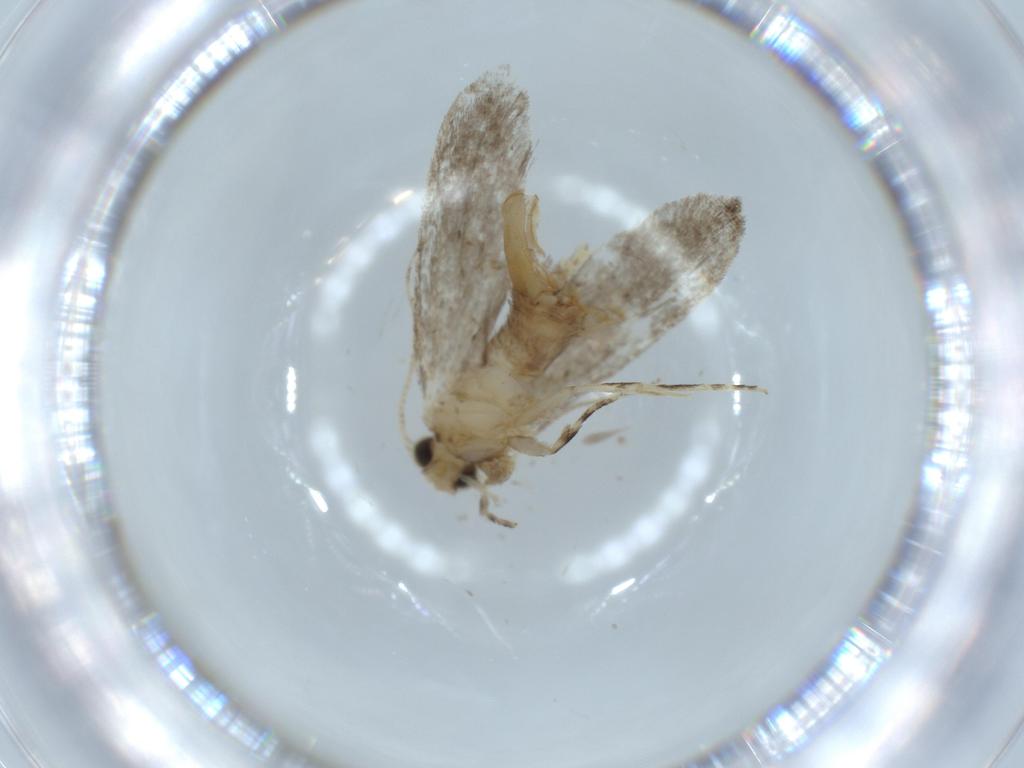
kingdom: Animalia
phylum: Arthropoda
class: Insecta
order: Lepidoptera
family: Tineidae
